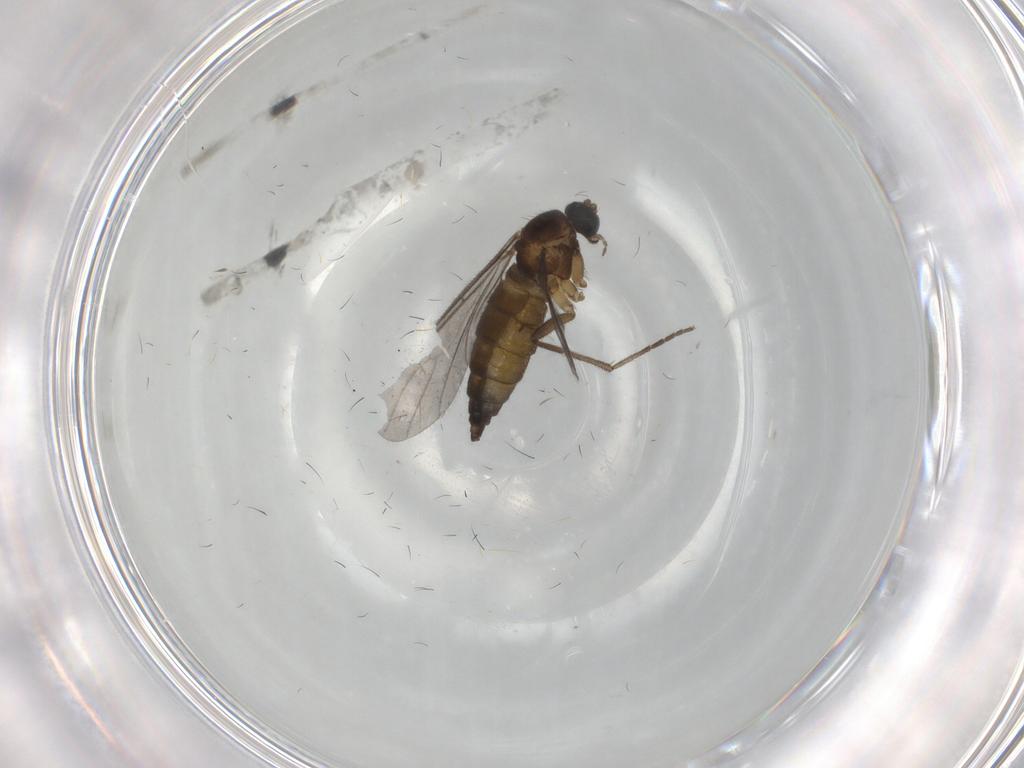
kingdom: Animalia
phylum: Arthropoda
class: Insecta
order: Diptera
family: Sciaridae
